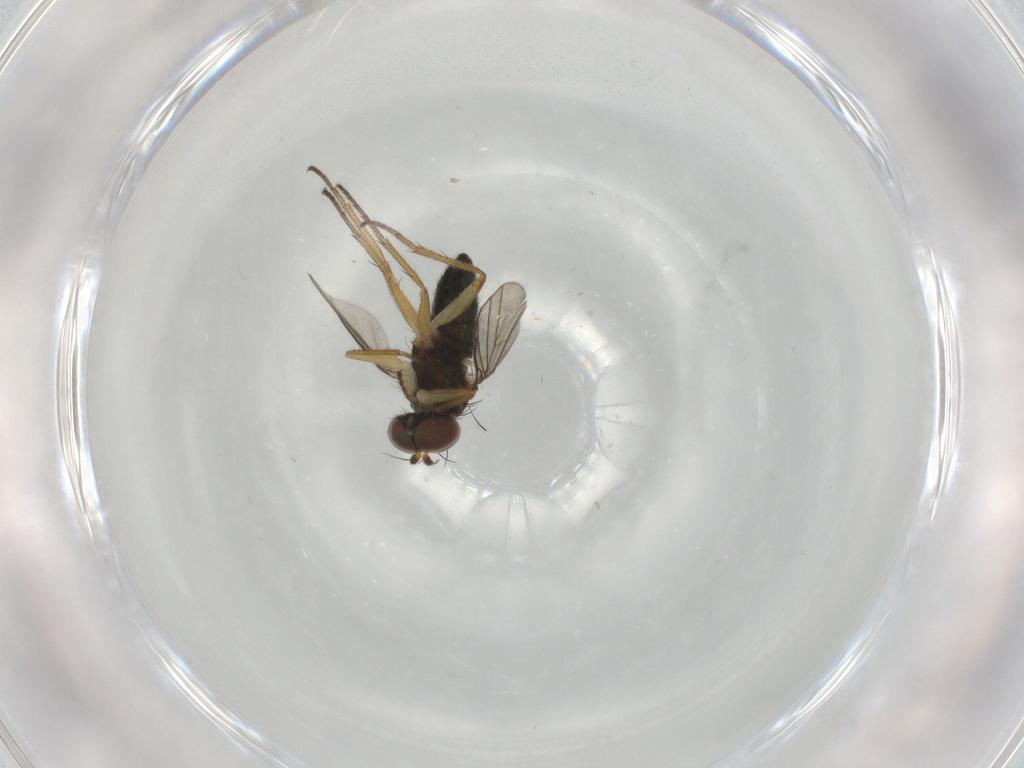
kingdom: Animalia
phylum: Arthropoda
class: Insecta
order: Diptera
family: Dolichopodidae
